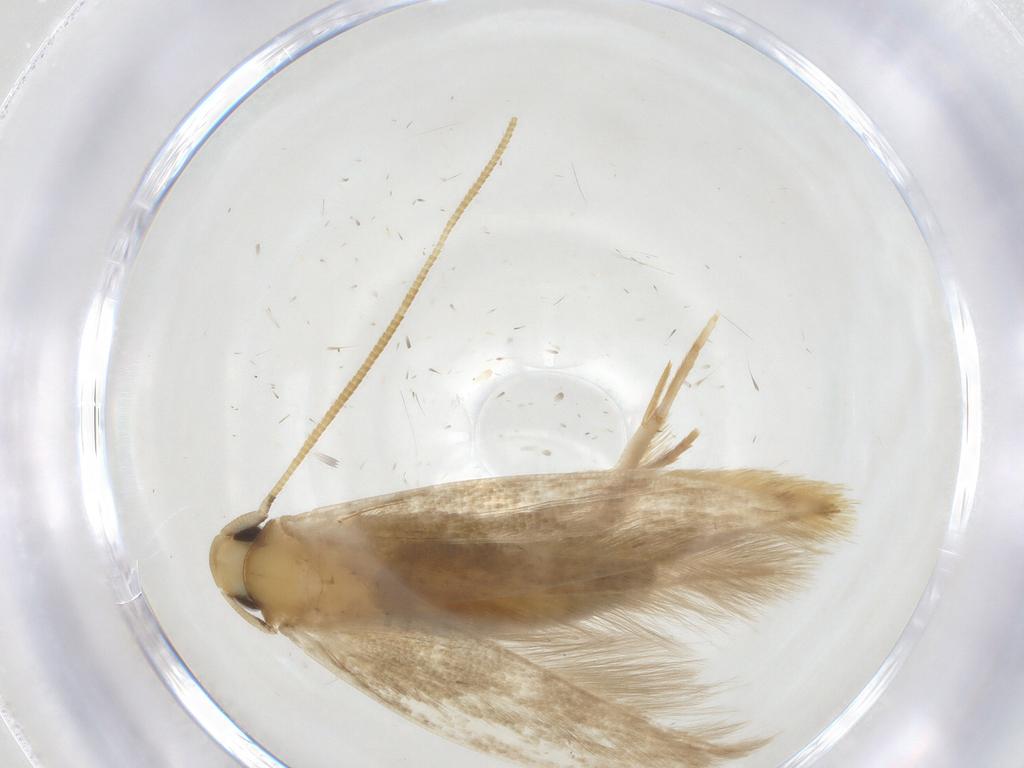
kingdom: Animalia
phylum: Arthropoda
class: Insecta
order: Lepidoptera
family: Tineidae
